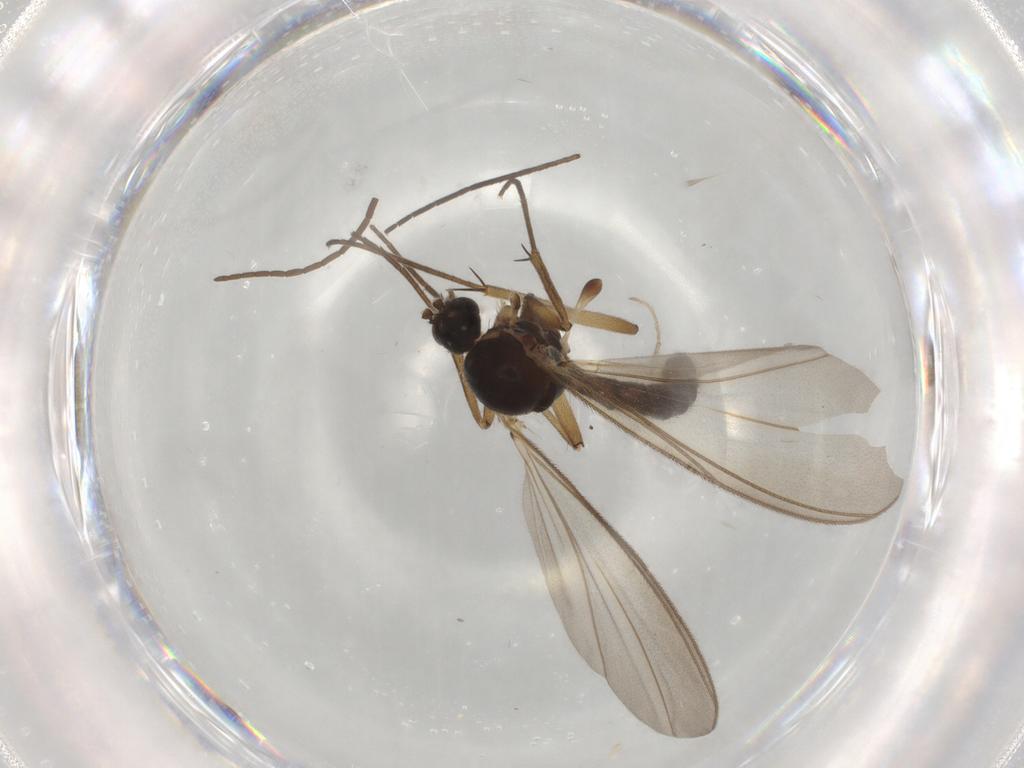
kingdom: Animalia
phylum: Arthropoda
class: Insecta
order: Diptera
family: Mycetophilidae
